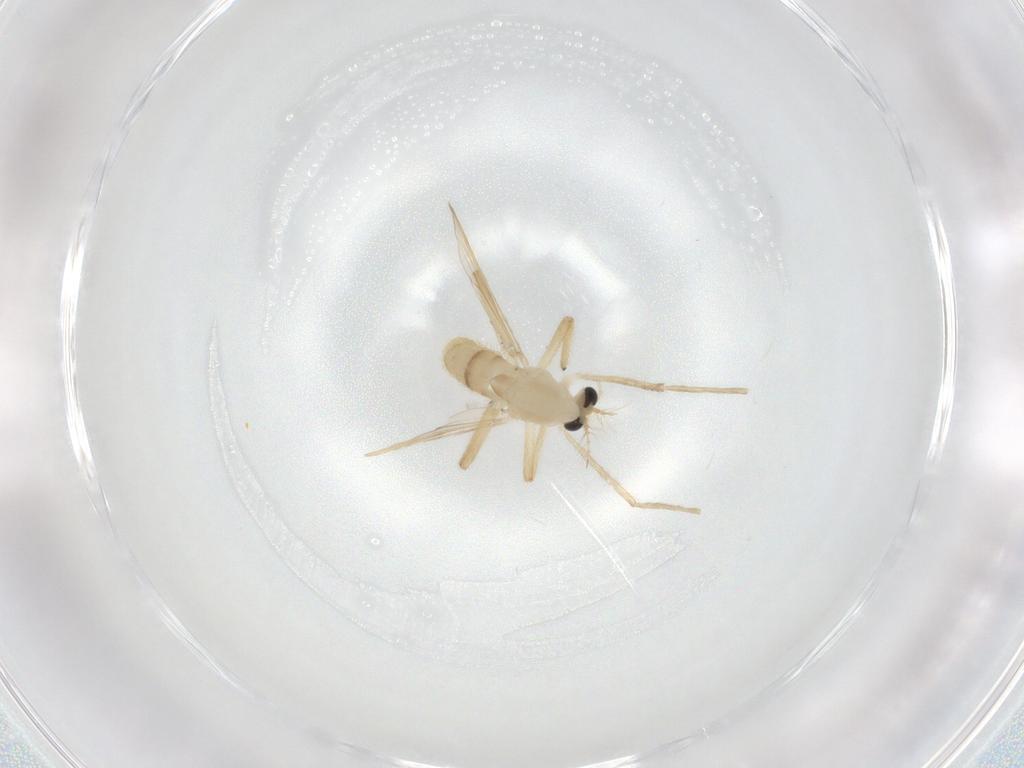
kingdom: Animalia
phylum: Arthropoda
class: Insecta
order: Diptera
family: Chironomidae
